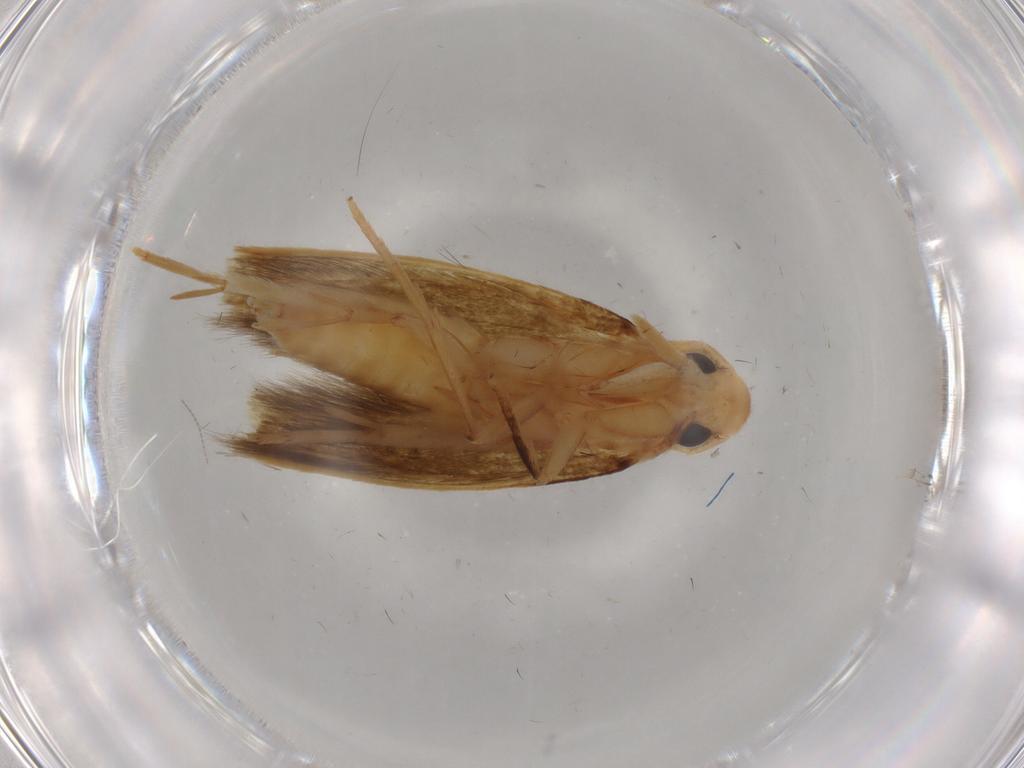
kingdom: Animalia
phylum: Arthropoda
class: Insecta
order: Lepidoptera
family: Tineidae
